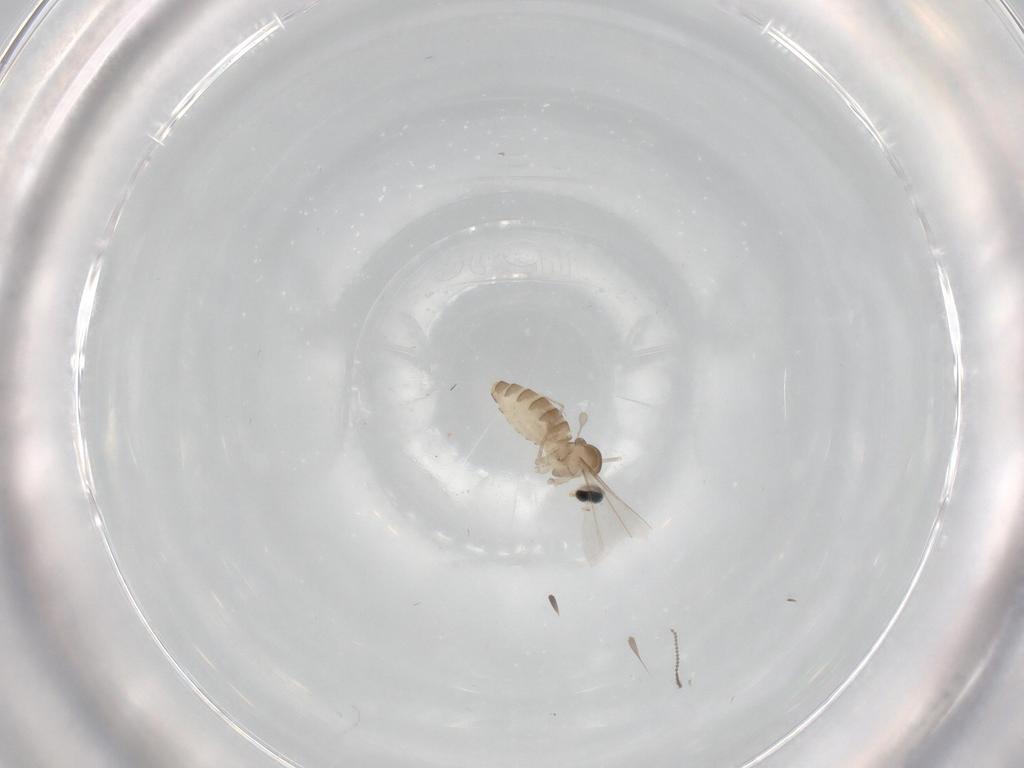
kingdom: Animalia
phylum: Arthropoda
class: Insecta
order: Diptera
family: Cecidomyiidae
